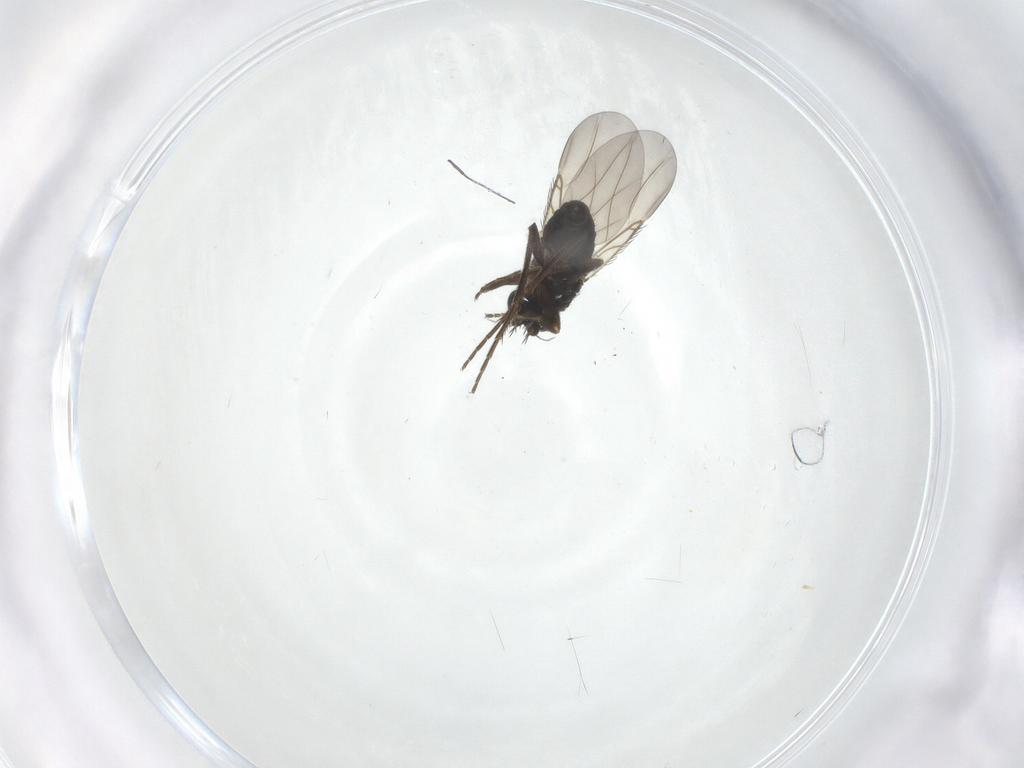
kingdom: Animalia
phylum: Arthropoda
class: Insecta
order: Diptera
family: Phoridae
